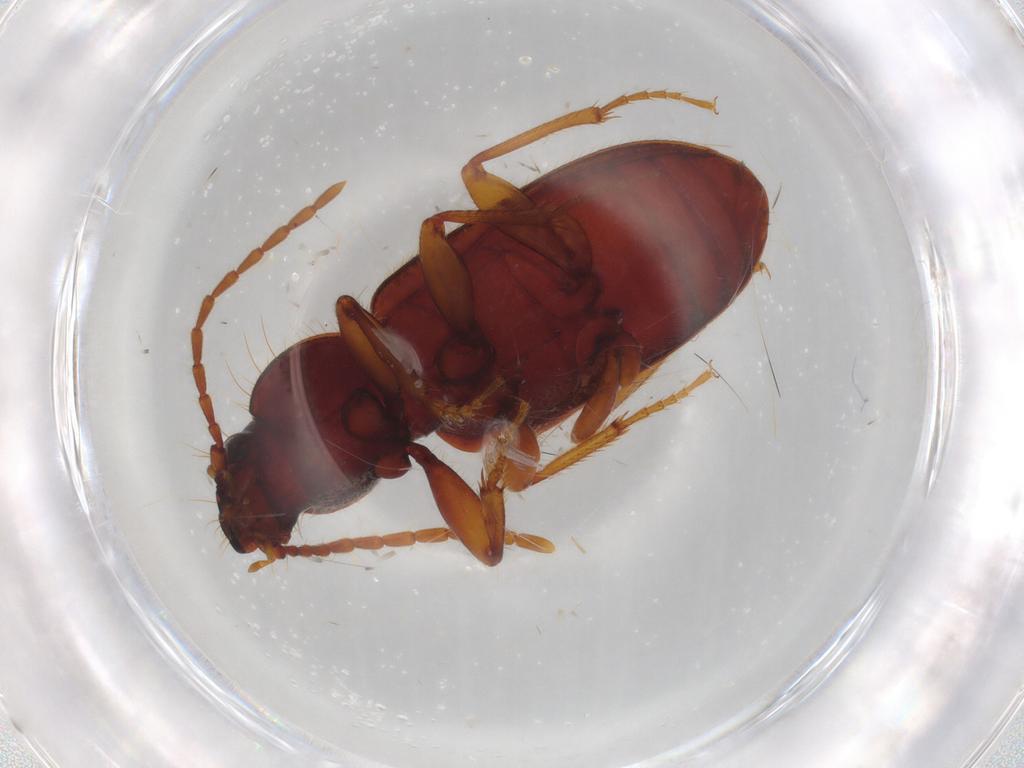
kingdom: Animalia
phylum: Arthropoda
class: Insecta
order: Coleoptera
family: Carabidae
